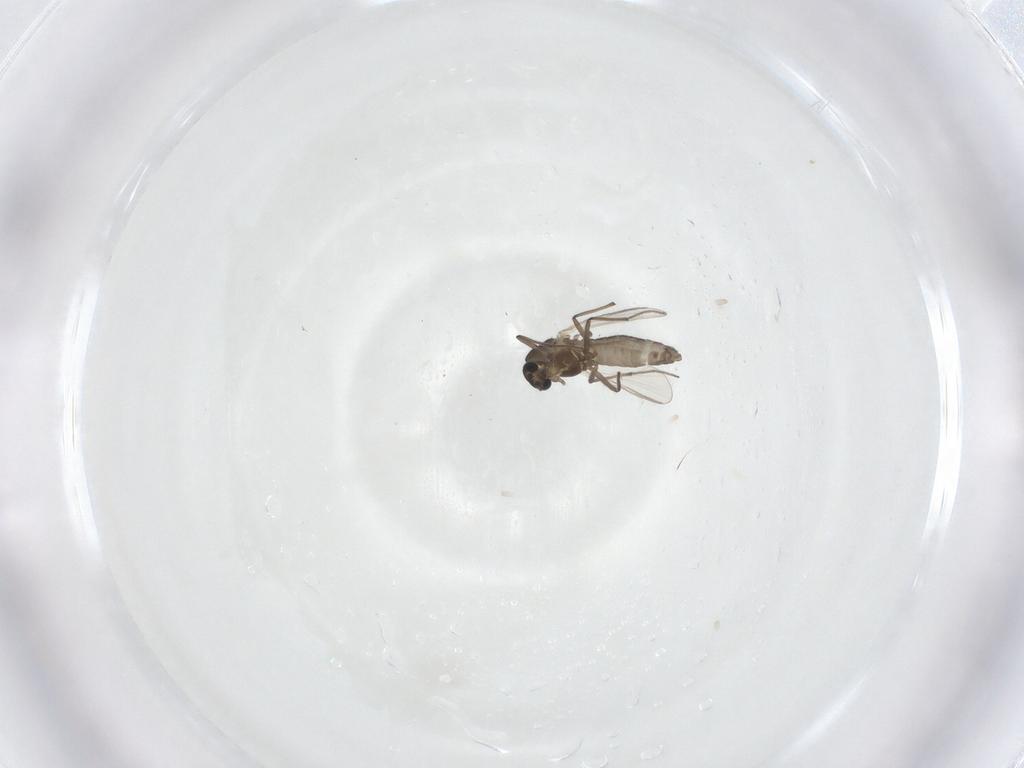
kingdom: Animalia
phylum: Arthropoda
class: Insecta
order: Diptera
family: Chironomidae
